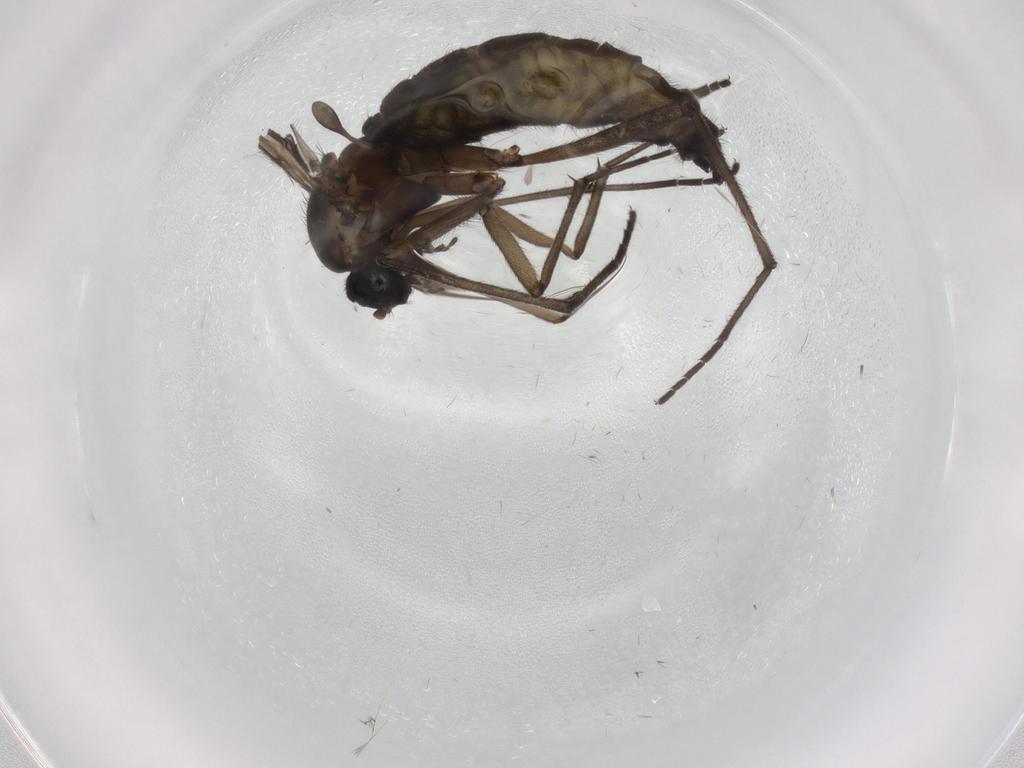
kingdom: Animalia
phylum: Arthropoda
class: Insecta
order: Diptera
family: Sciaridae
